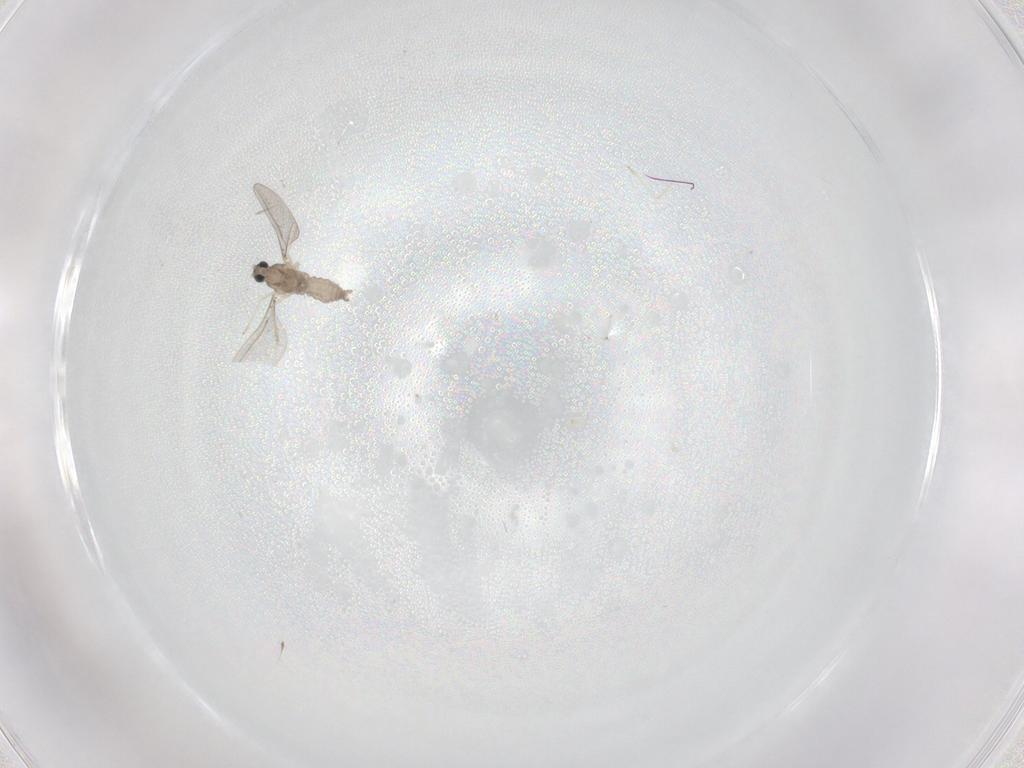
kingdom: Animalia
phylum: Arthropoda
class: Insecta
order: Diptera
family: Cecidomyiidae
